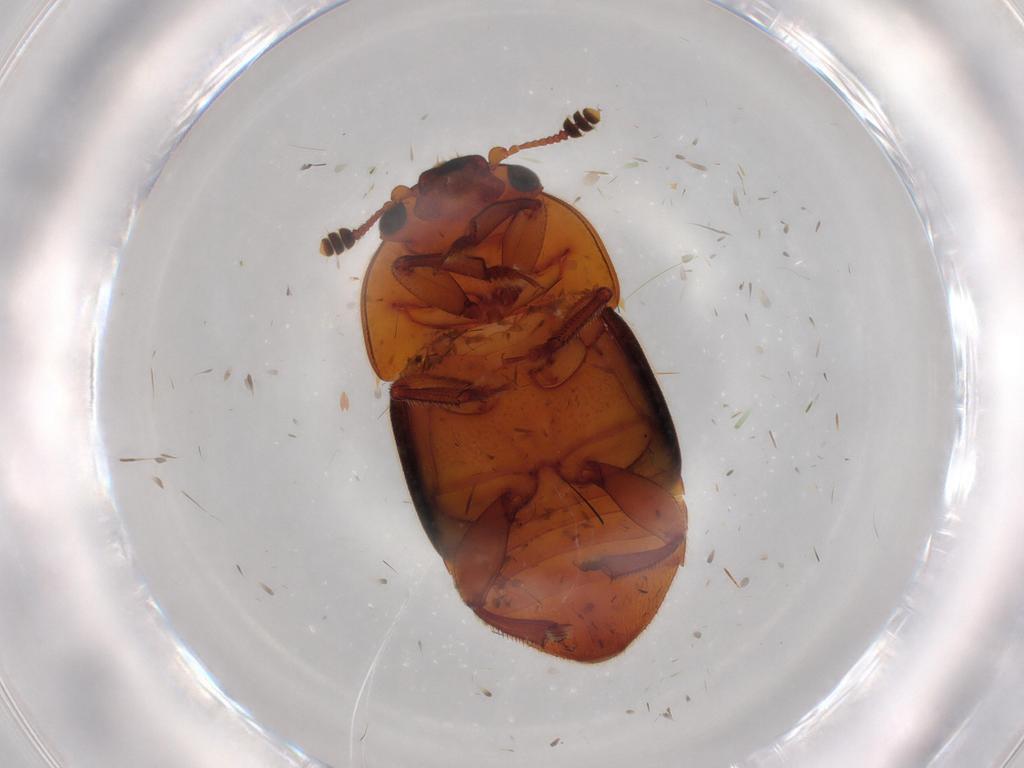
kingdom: Animalia
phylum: Arthropoda
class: Insecta
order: Coleoptera
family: Nitidulidae
